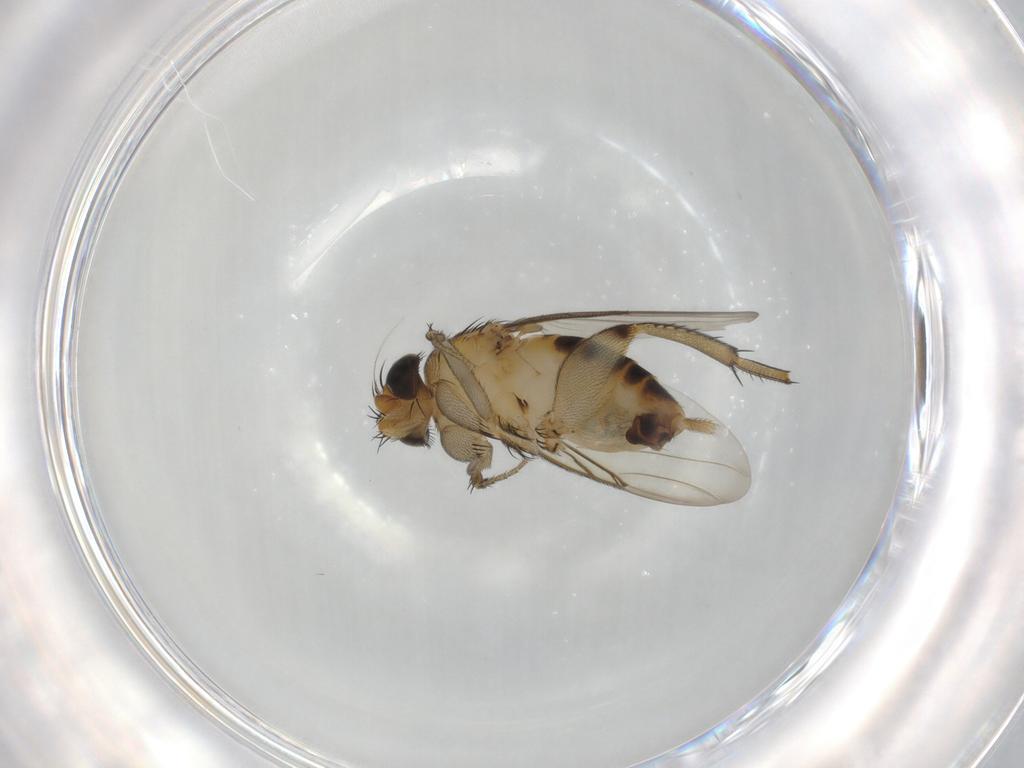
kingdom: Animalia
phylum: Arthropoda
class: Insecta
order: Diptera
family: Phoridae
